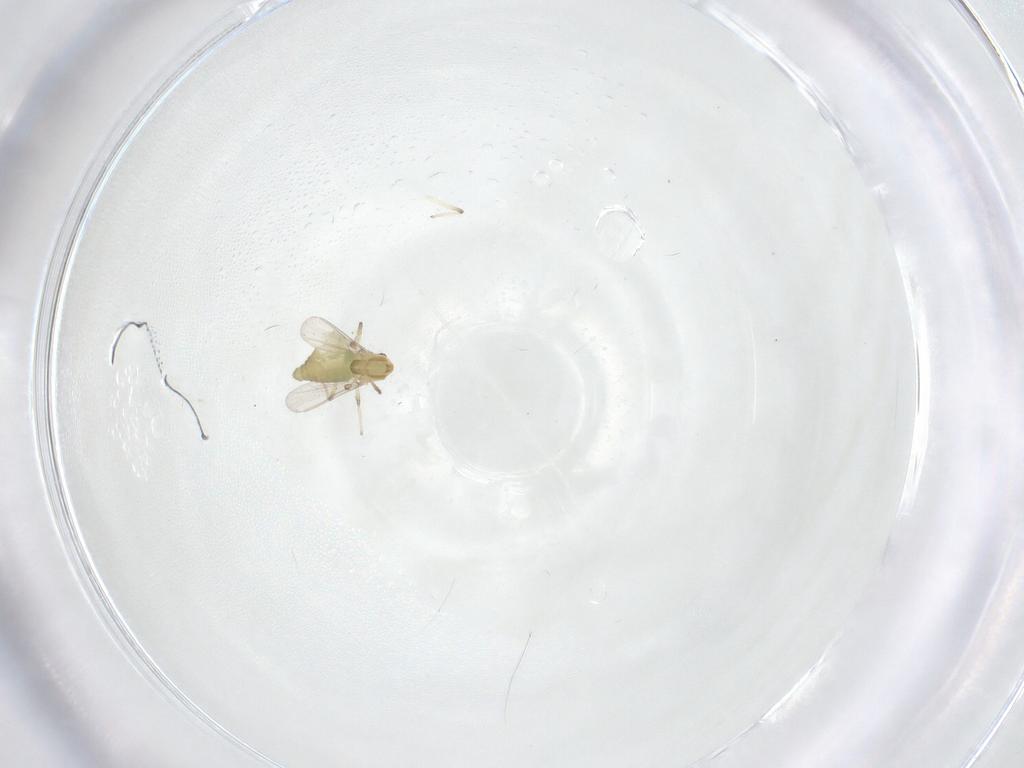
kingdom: Animalia
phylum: Arthropoda
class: Insecta
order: Diptera
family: Chironomidae
